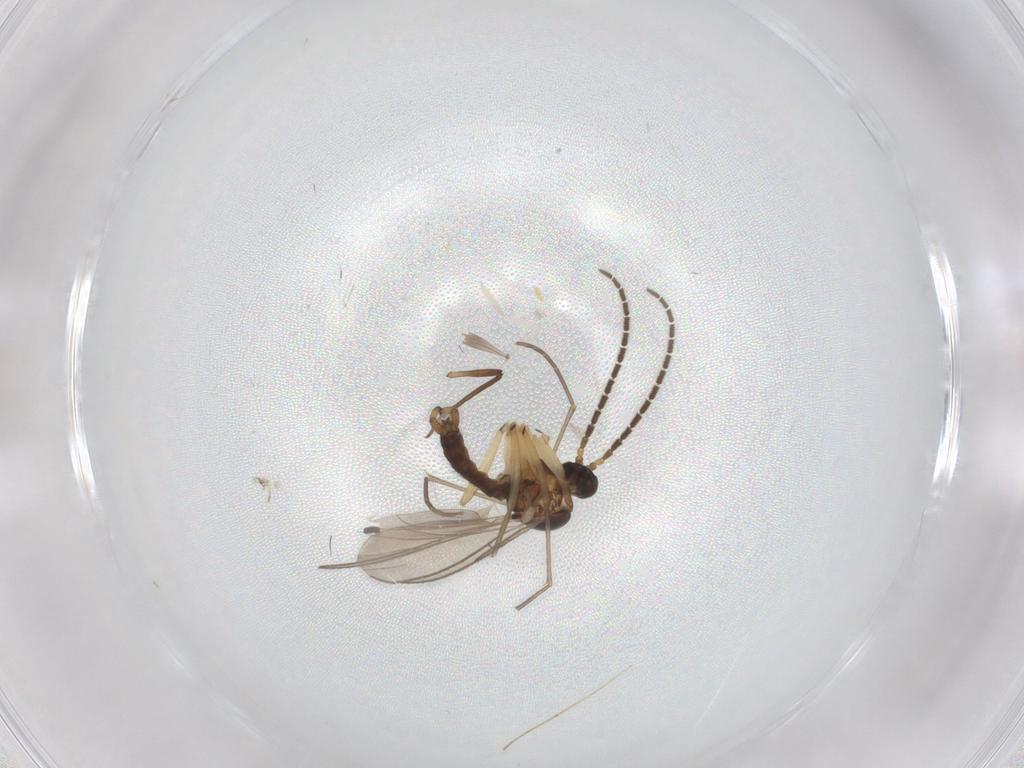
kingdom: Animalia
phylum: Arthropoda
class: Insecta
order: Diptera
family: Sciaridae
